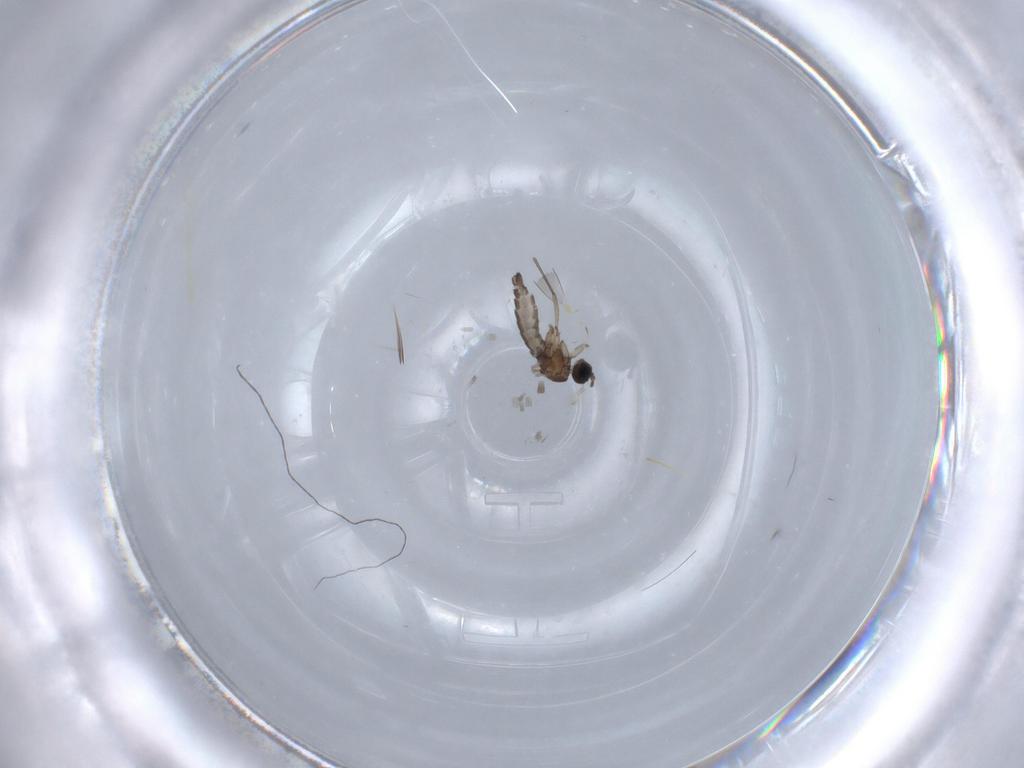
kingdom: Animalia
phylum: Arthropoda
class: Insecta
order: Diptera
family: Sciaridae
